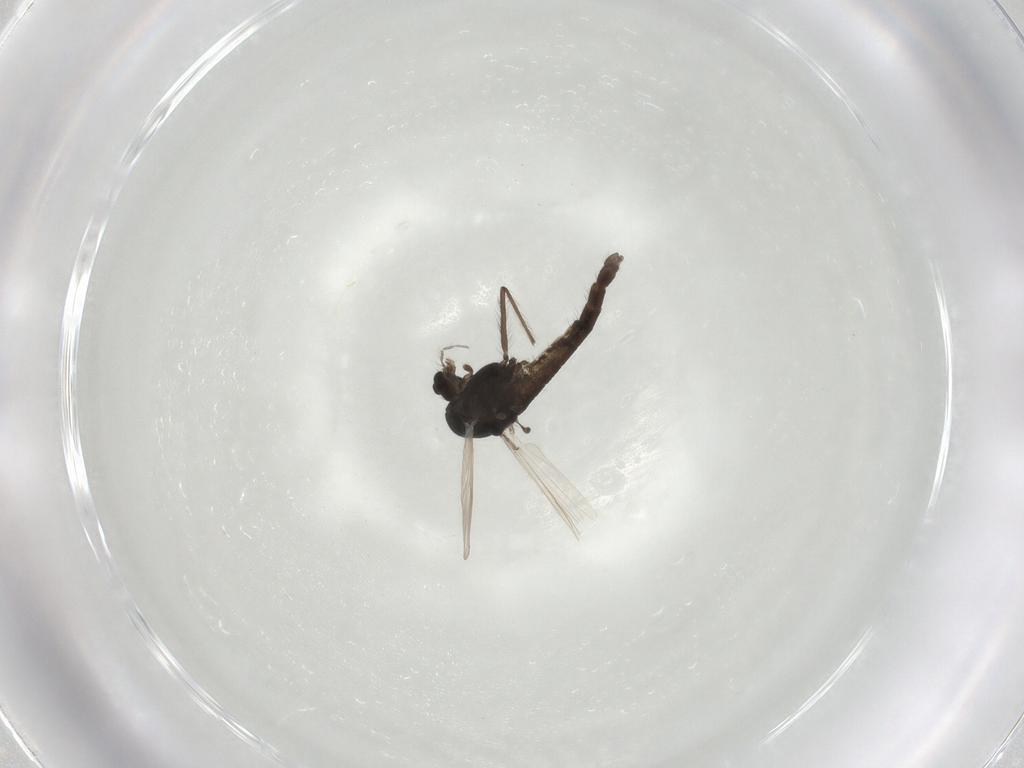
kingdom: Animalia
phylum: Arthropoda
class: Insecta
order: Diptera
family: Chironomidae
